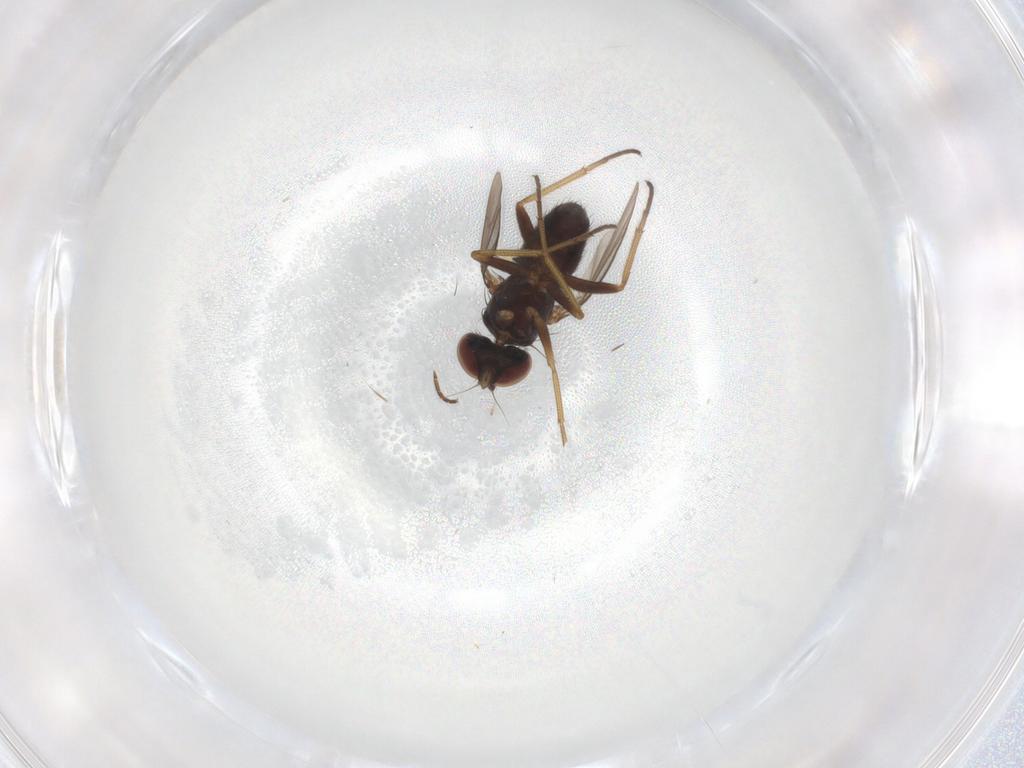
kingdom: Animalia
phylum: Arthropoda
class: Insecta
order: Diptera
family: Dolichopodidae
